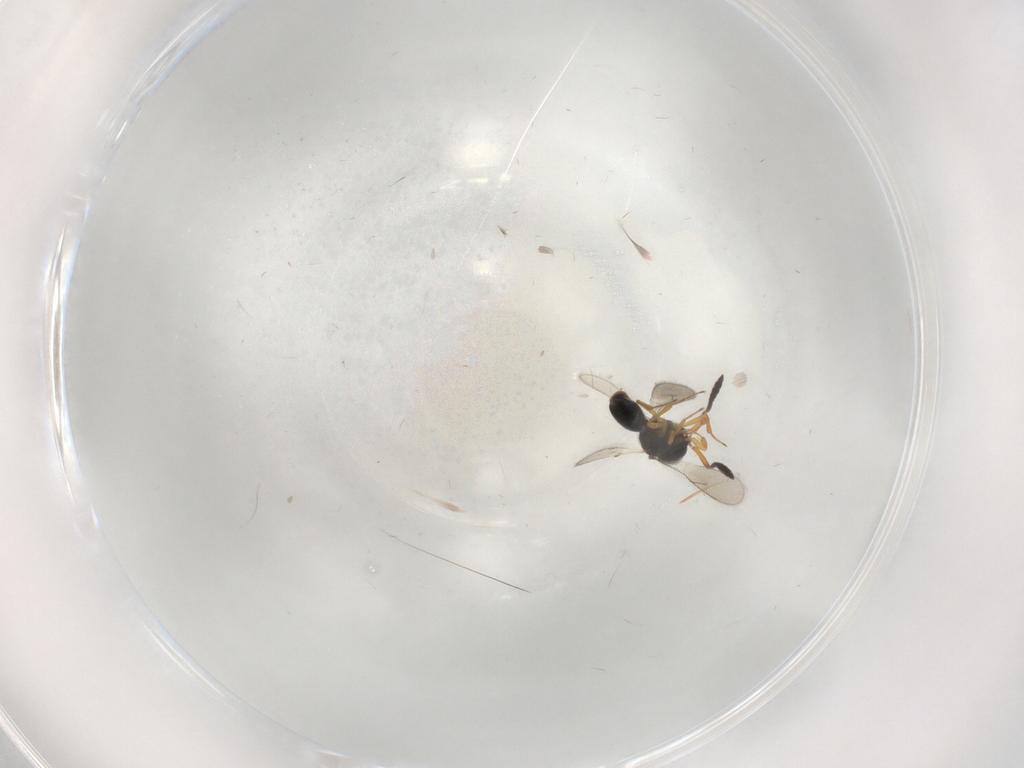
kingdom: Animalia
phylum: Arthropoda
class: Insecta
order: Hymenoptera
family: Scelionidae
